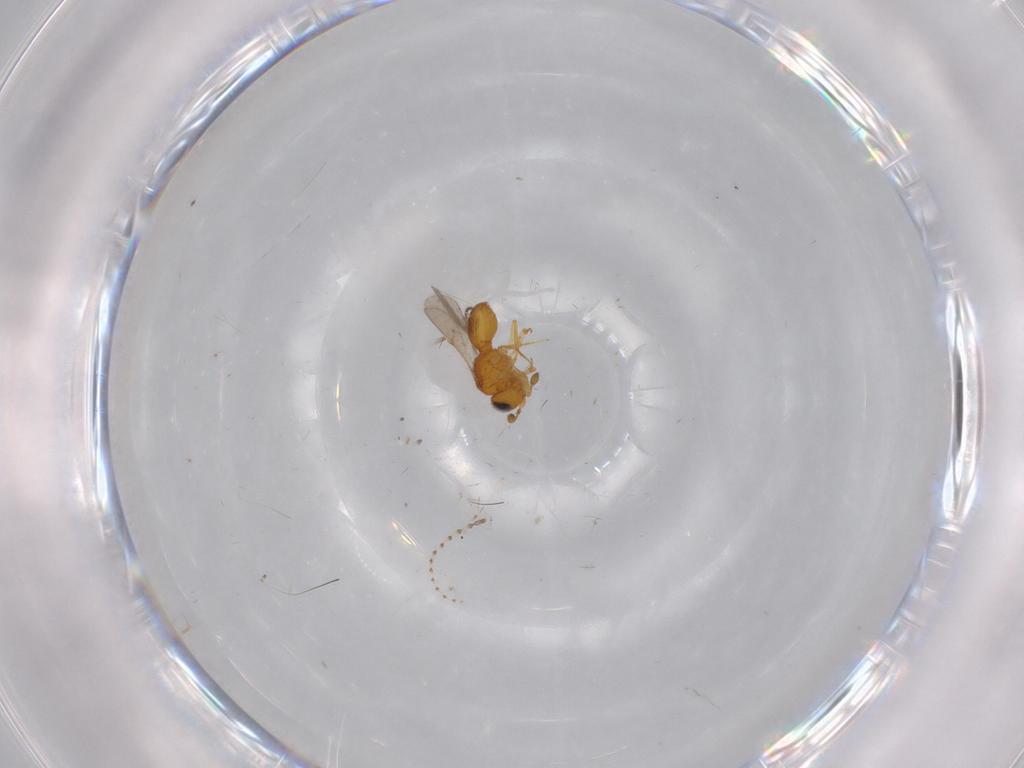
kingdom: Animalia
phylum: Arthropoda
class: Insecta
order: Hymenoptera
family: Scelionidae
